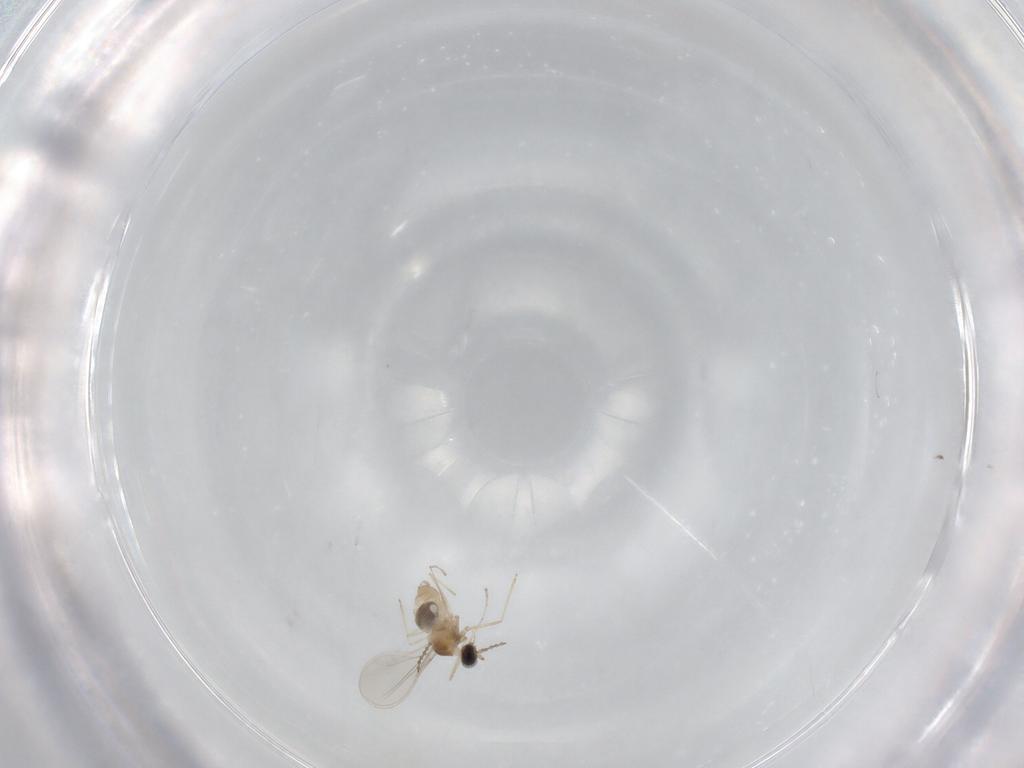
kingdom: Animalia
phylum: Arthropoda
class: Insecta
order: Diptera
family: Cecidomyiidae
